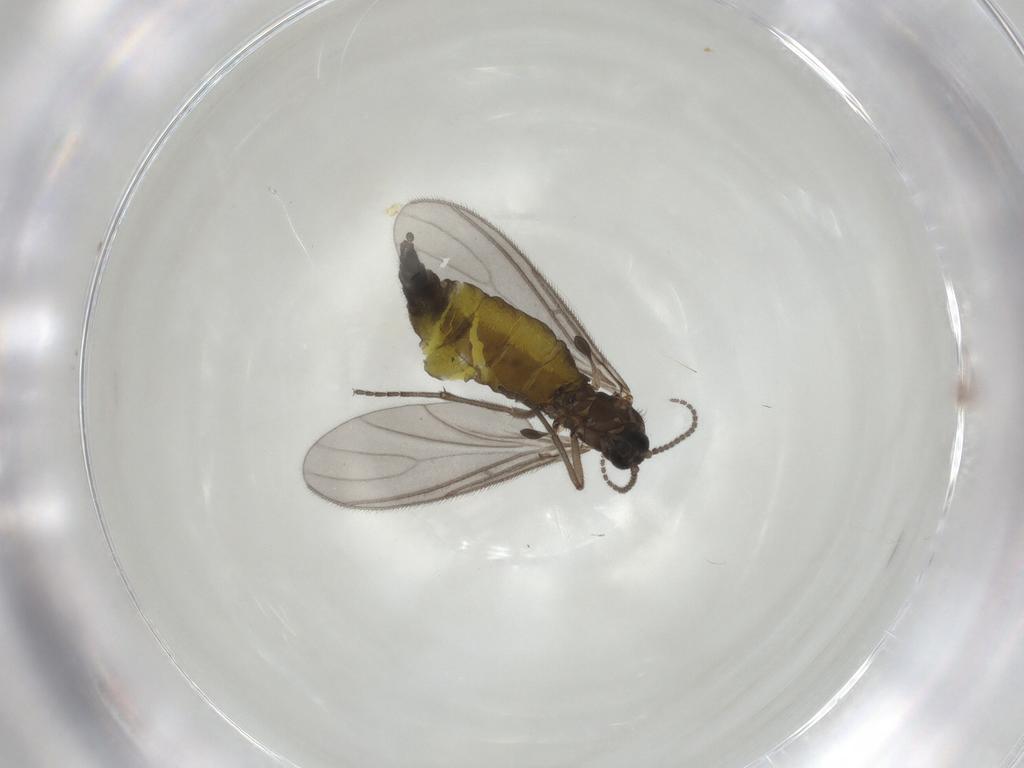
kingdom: Animalia
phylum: Arthropoda
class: Insecta
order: Diptera
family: Sciaridae
